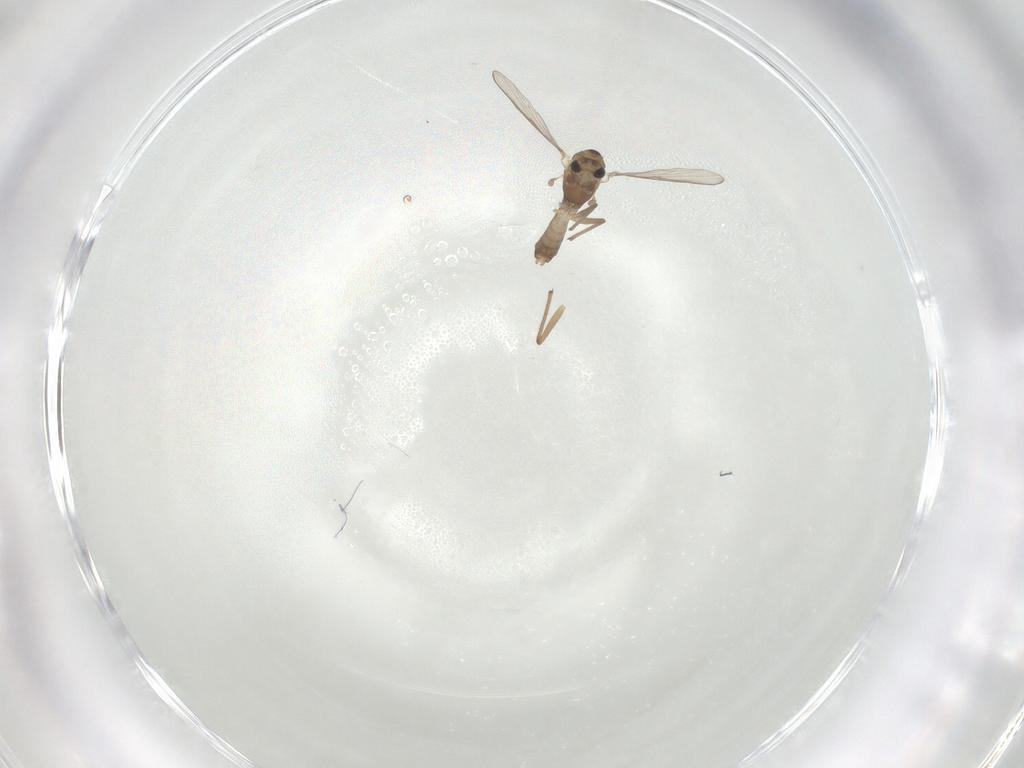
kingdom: Animalia
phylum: Arthropoda
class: Insecta
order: Diptera
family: Chironomidae
